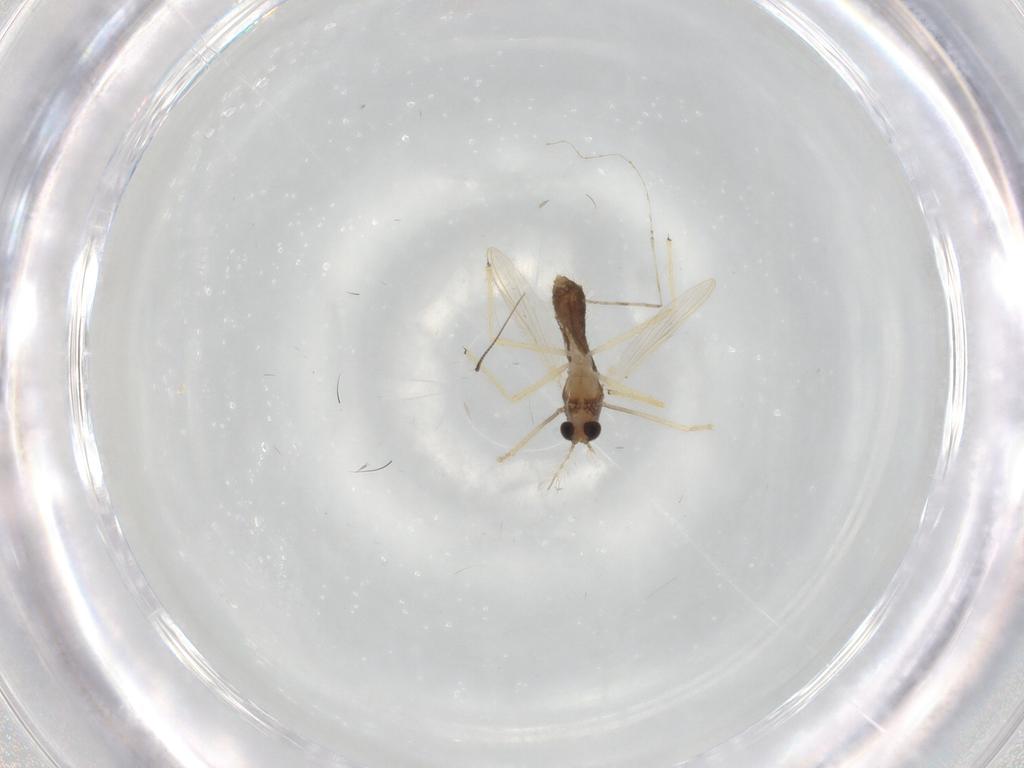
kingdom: Animalia
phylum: Arthropoda
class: Insecta
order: Diptera
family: Chironomidae
